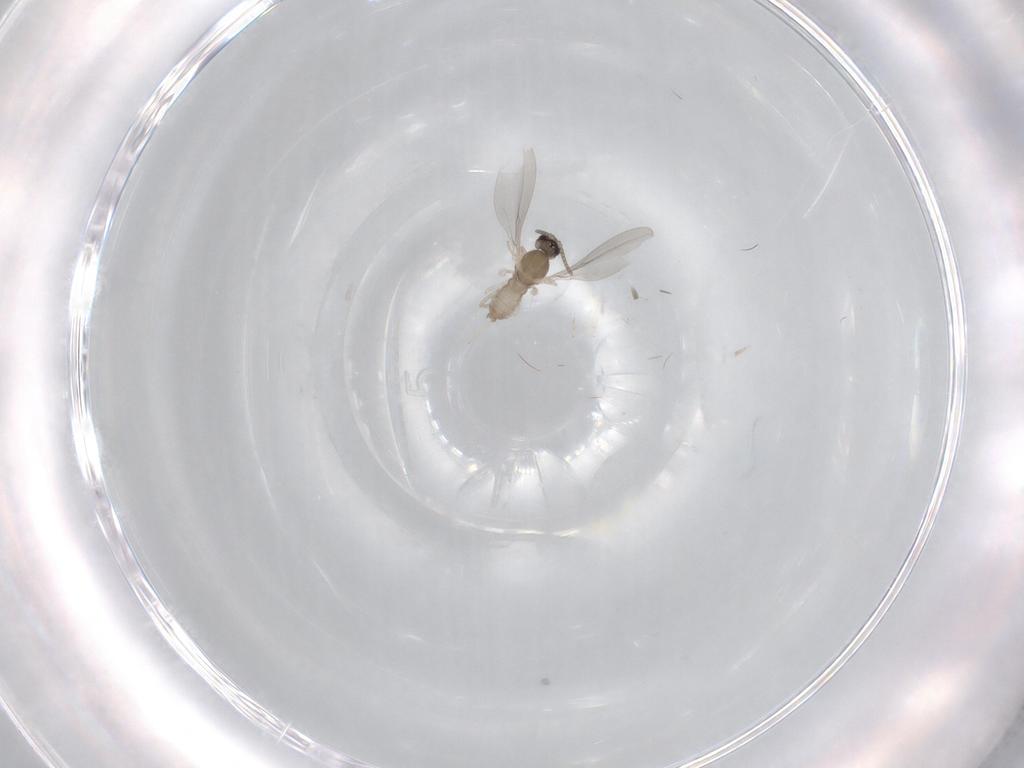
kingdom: Animalia
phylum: Arthropoda
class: Insecta
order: Diptera
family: Cecidomyiidae
